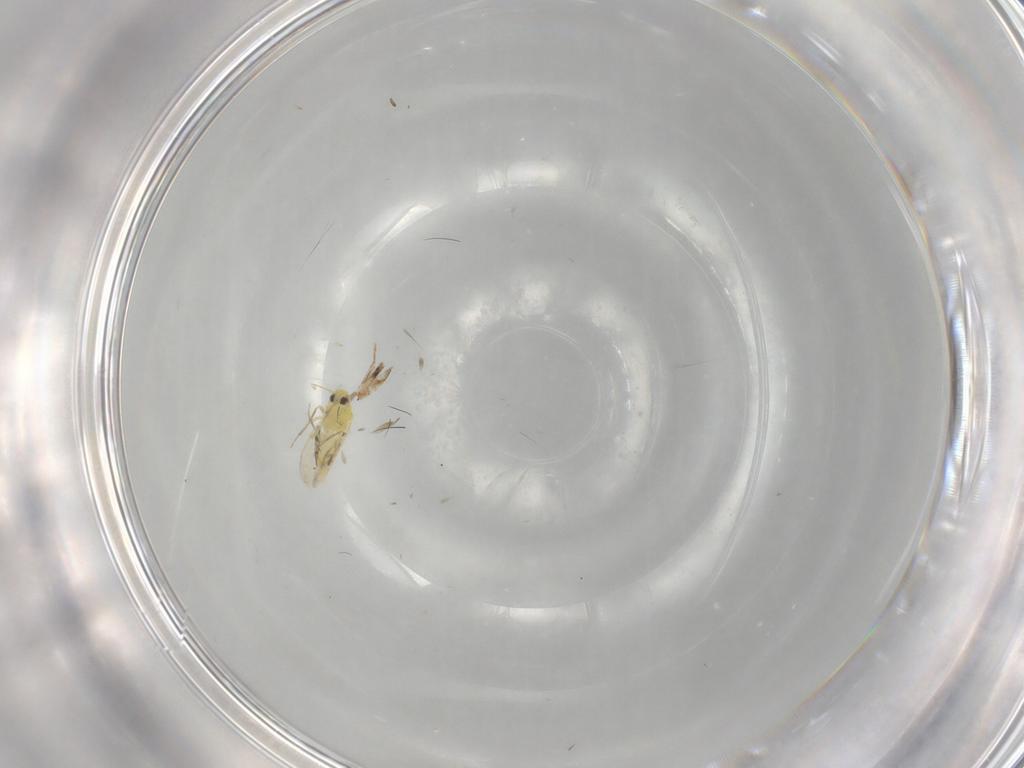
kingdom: Animalia
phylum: Arthropoda
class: Insecta
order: Hemiptera
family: Aleyrodidae
